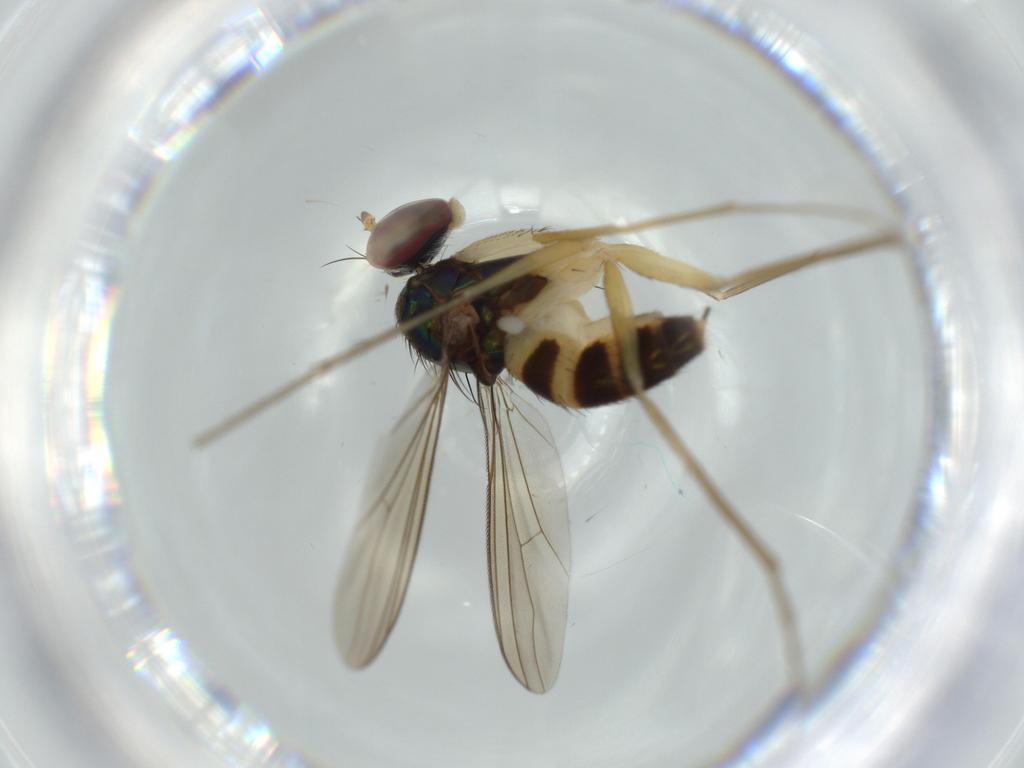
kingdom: Animalia
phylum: Arthropoda
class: Insecta
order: Diptera
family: Dolichopodidae
